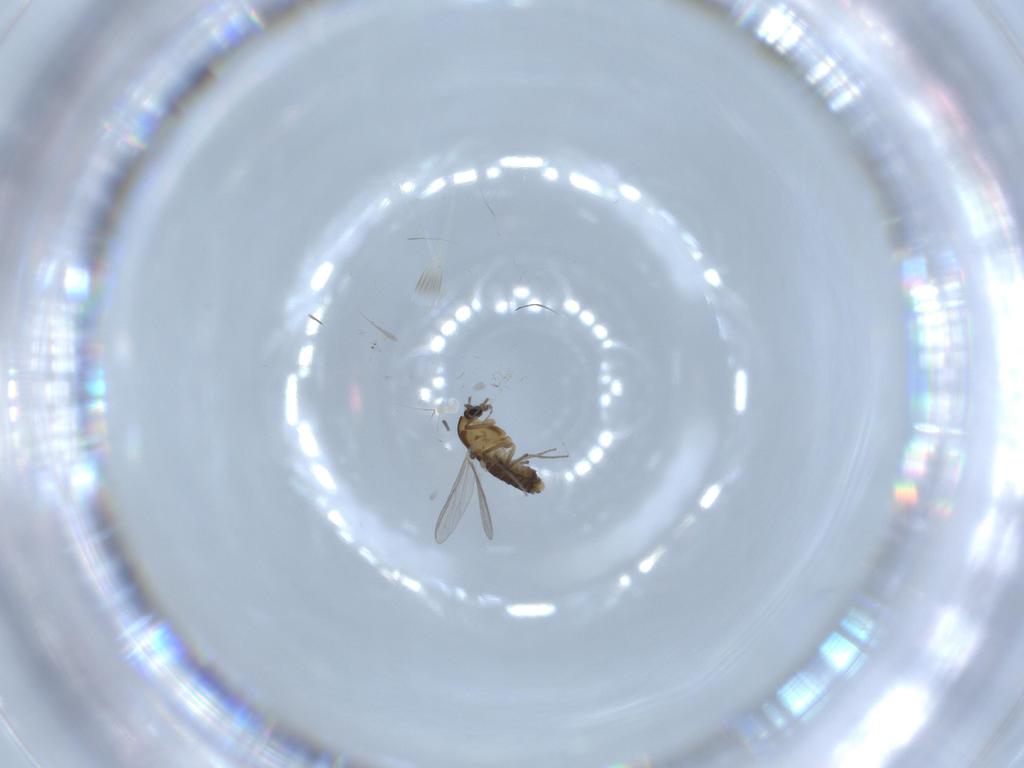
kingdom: Animalia
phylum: Arthropoda
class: Insecta
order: Diptera
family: Chironomidae
